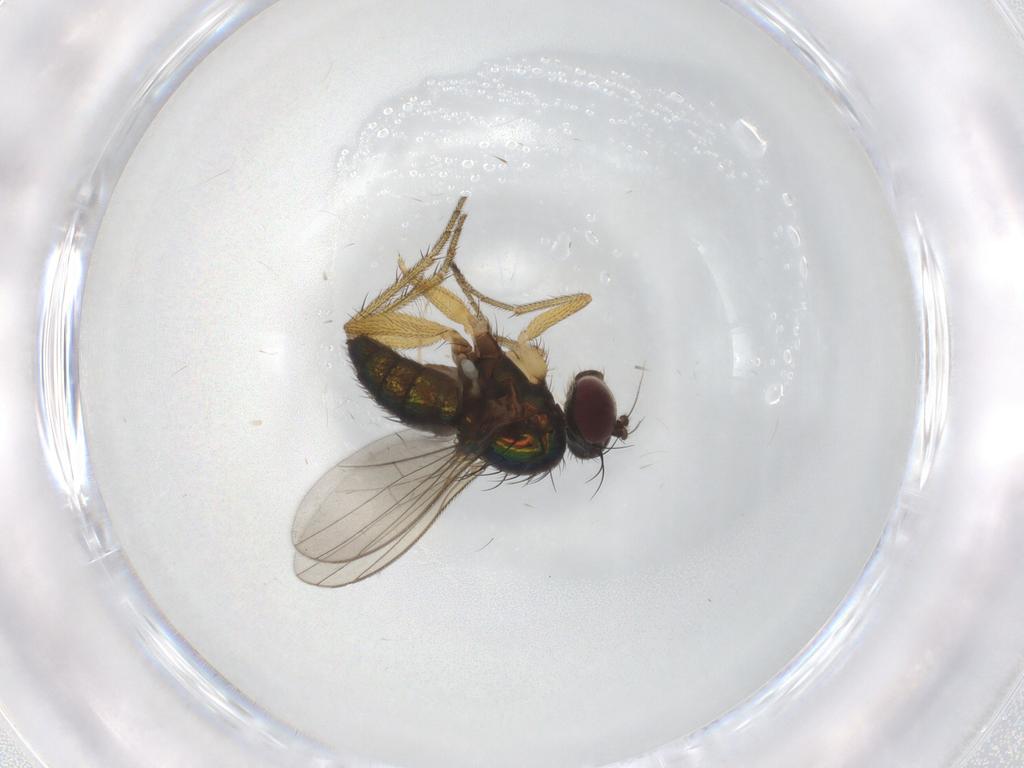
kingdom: Animalia
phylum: Arthropoda
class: Insecta
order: Diptera
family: Dolichopodidae
